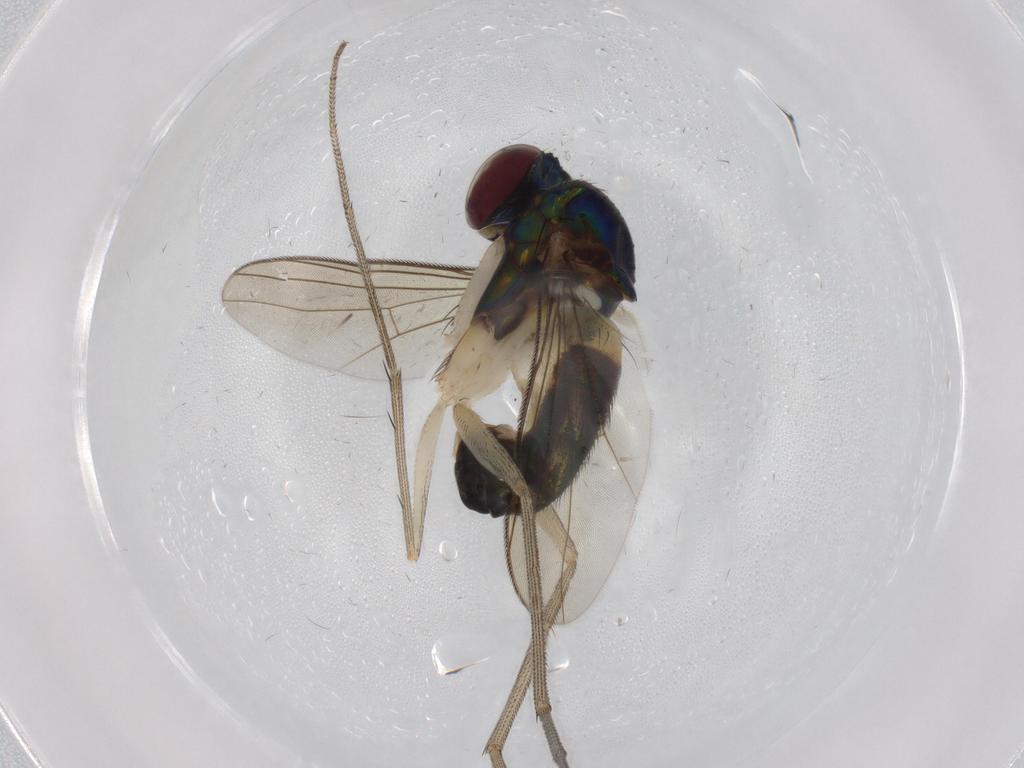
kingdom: Animalia
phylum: Arthropoda
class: Insecta
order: Diptera
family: Dolichopodidae
